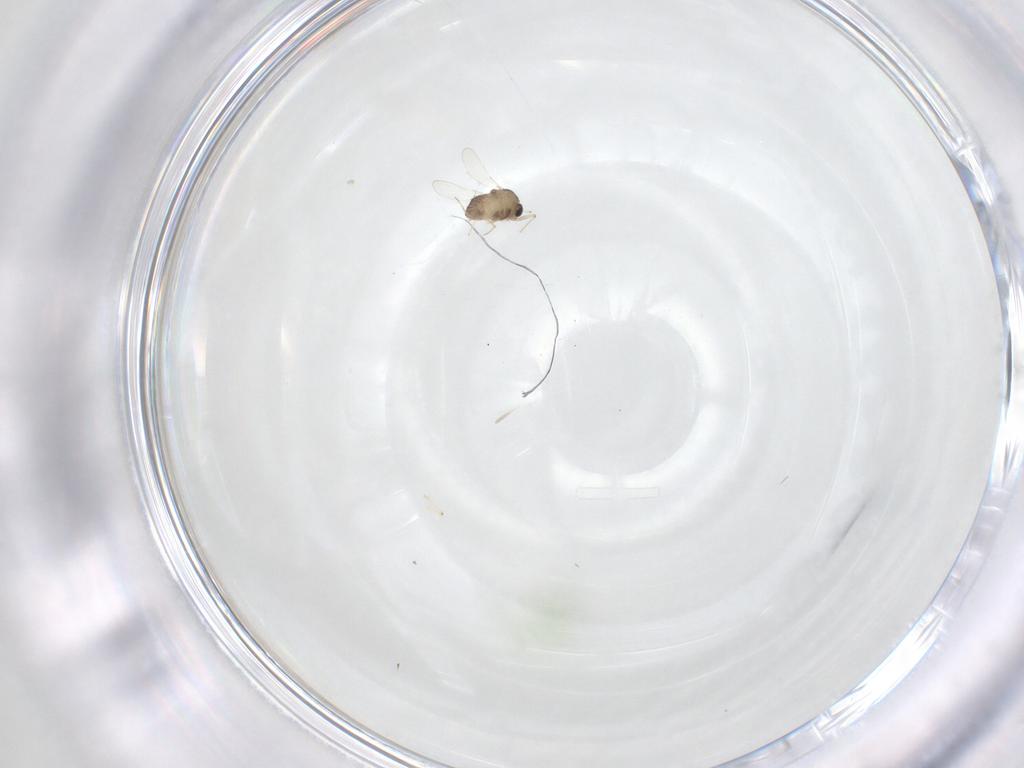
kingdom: Animalia
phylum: Arthropoda
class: Insecta
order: Diptera
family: Chironomidae
